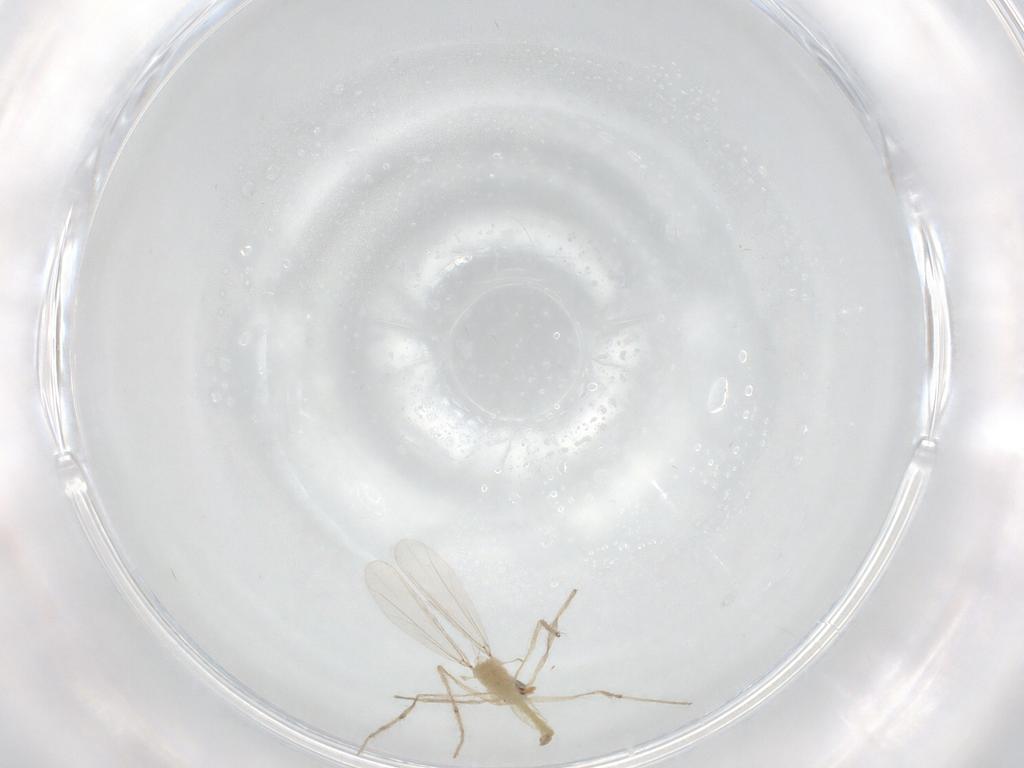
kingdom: Animalia
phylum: Arthropoda
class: Insecta
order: Diptera
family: Chironomidae
